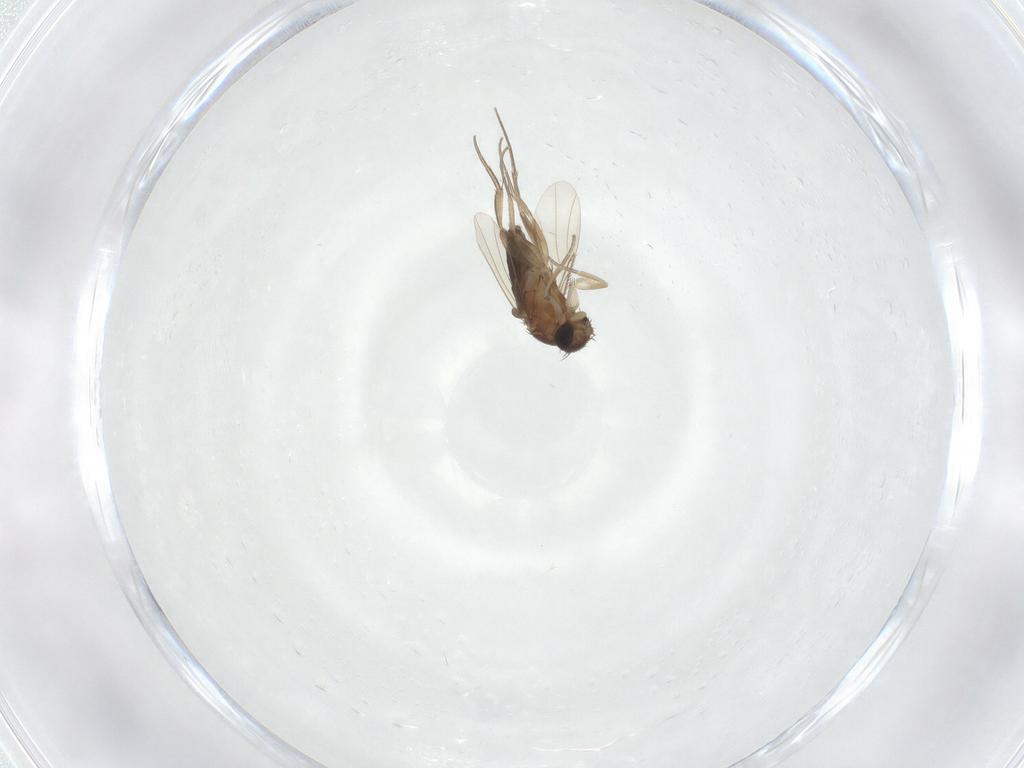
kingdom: Animalia
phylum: Arthropoda
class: Insecta
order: Diptera
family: Phoridae
